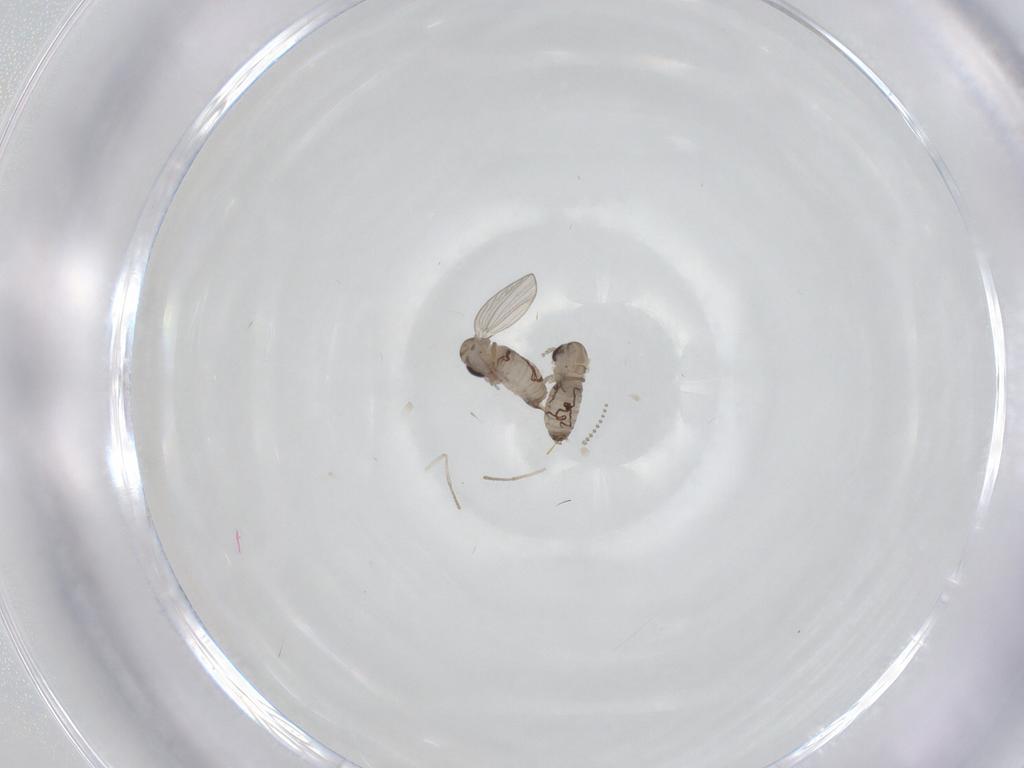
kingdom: Animalia
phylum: Arthropoda
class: Insecta
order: Diptera
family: Psychodidae
